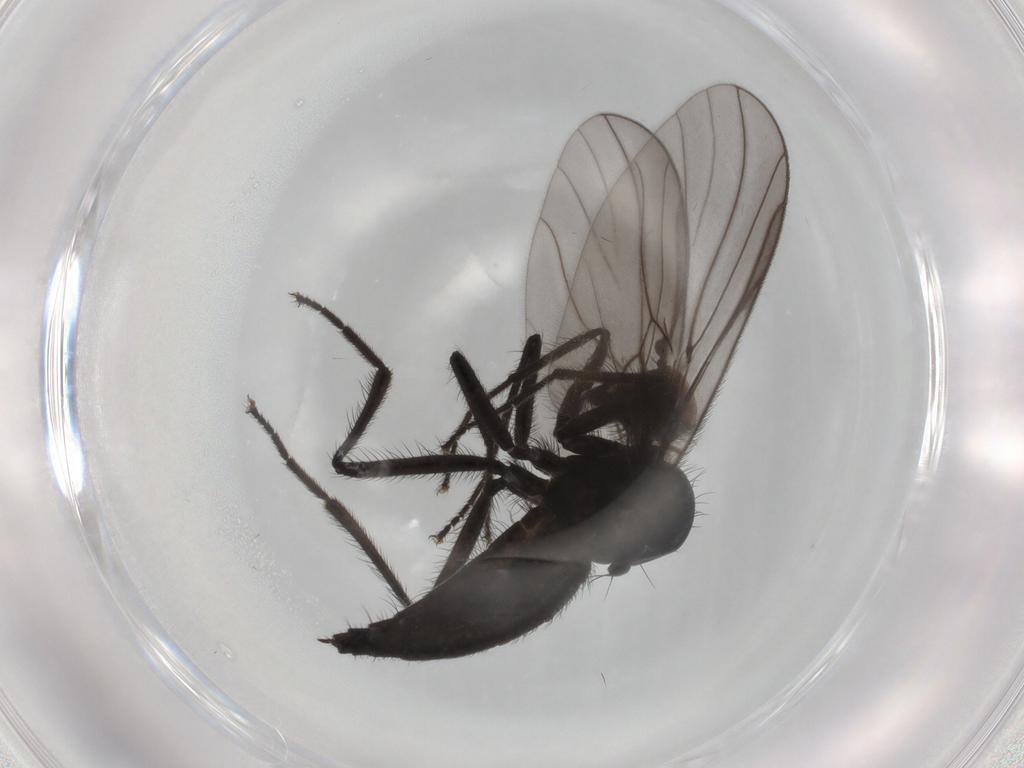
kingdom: Animalia
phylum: Arthropoda
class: Insecta
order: Diptera
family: Hybotidae
